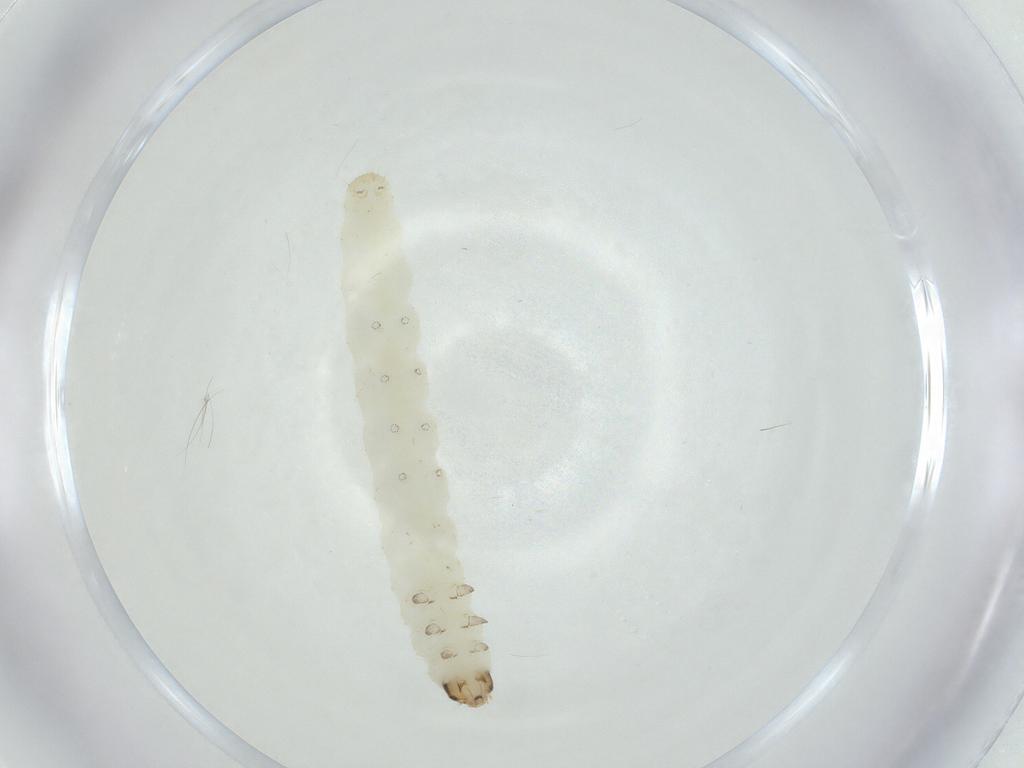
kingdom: Animalia
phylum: Arthropoda
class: Insecta
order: Lepidoptera
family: Gelechiidae
